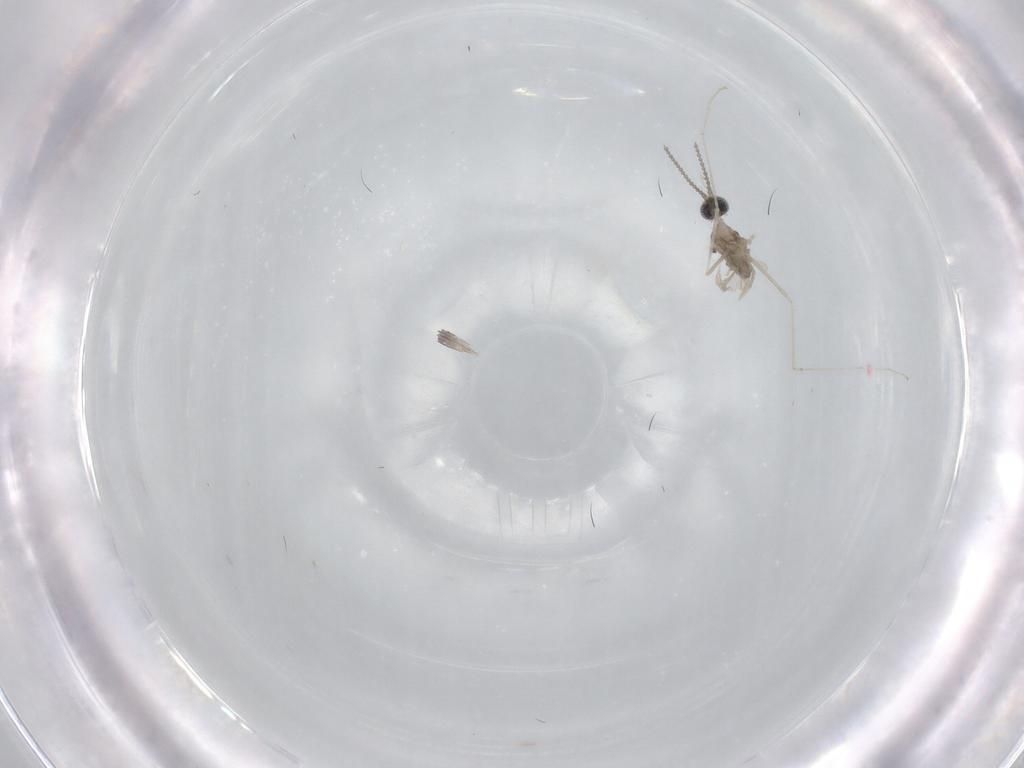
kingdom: Animalia
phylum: Arthropoda
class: Insecta
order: Diptera
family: Cecidomyiidae
